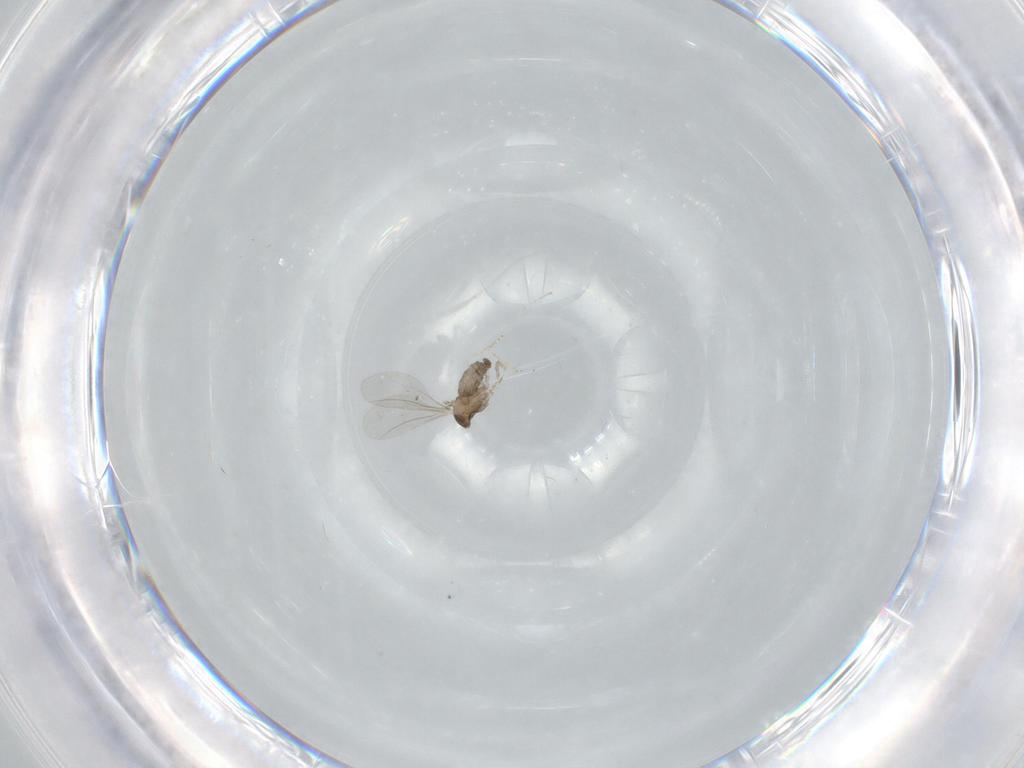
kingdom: Animalia
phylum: Arthropoda
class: Insecta
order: Diptera
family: Cecidomyiidae
